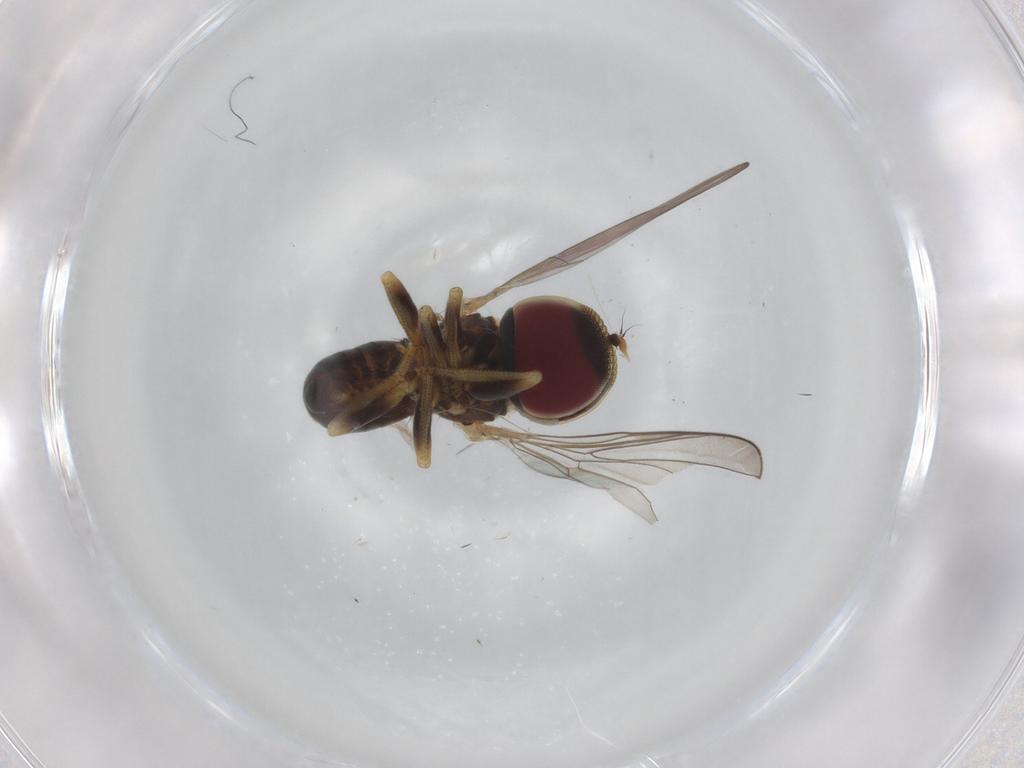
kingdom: Animalia
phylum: Arthropoda
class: Insecta
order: Diptera
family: Pipunculidae
